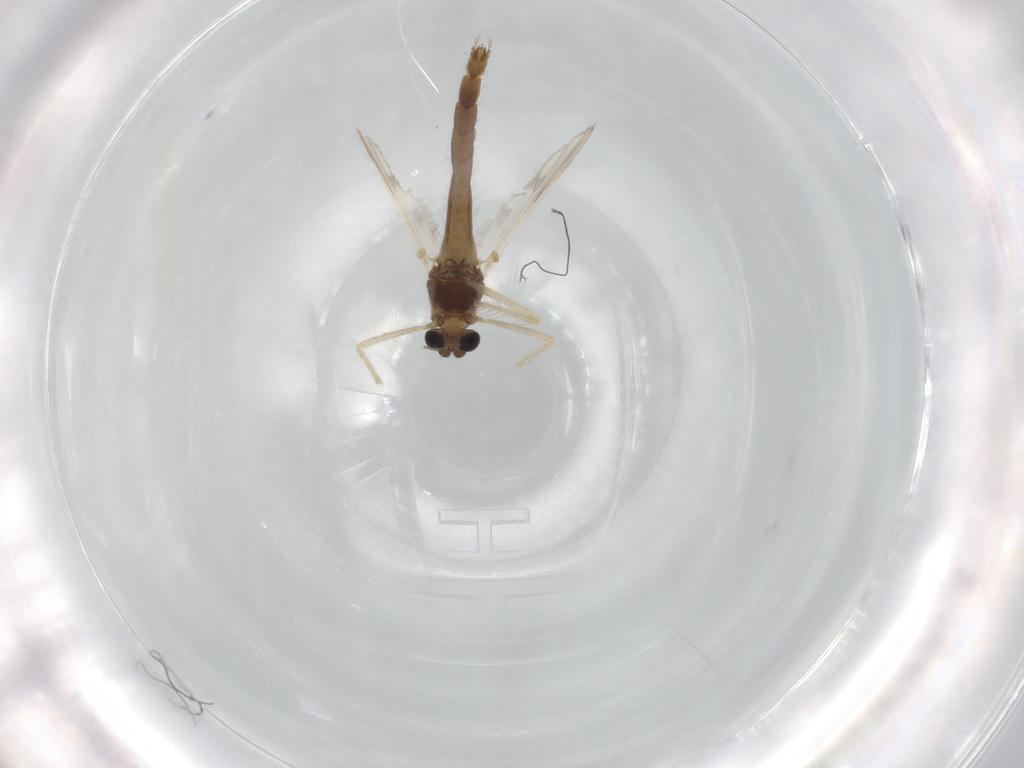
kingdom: Animalia
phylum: Arthropoda
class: Insecta
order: Diptera
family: Chironomidae
